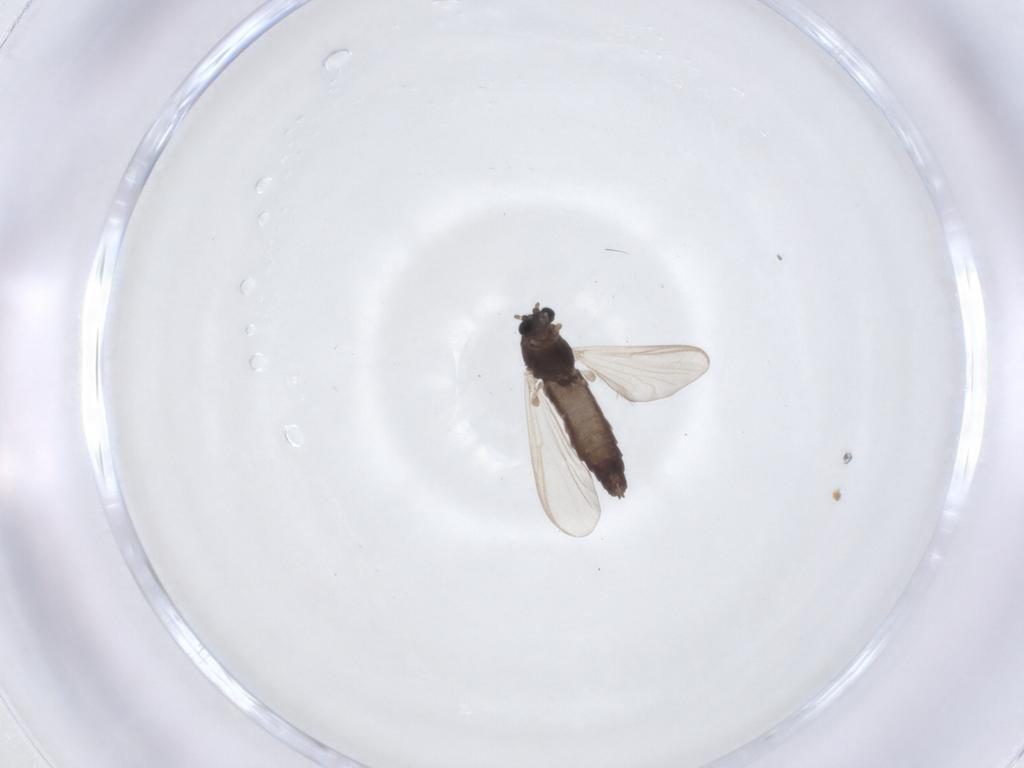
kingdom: Animalia
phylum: Arthropoda
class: Insecta
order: Diptera
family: Chironomidae
